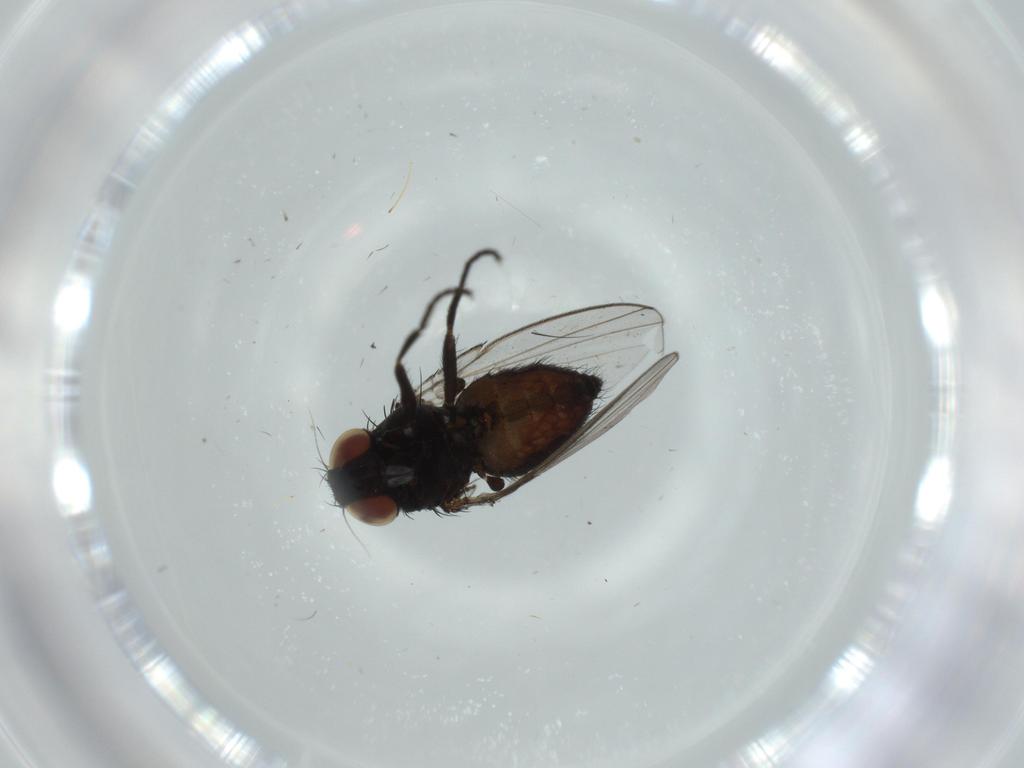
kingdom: Animalia
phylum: Arthropoda
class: Insecta
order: Diptera
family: Milichiidae
